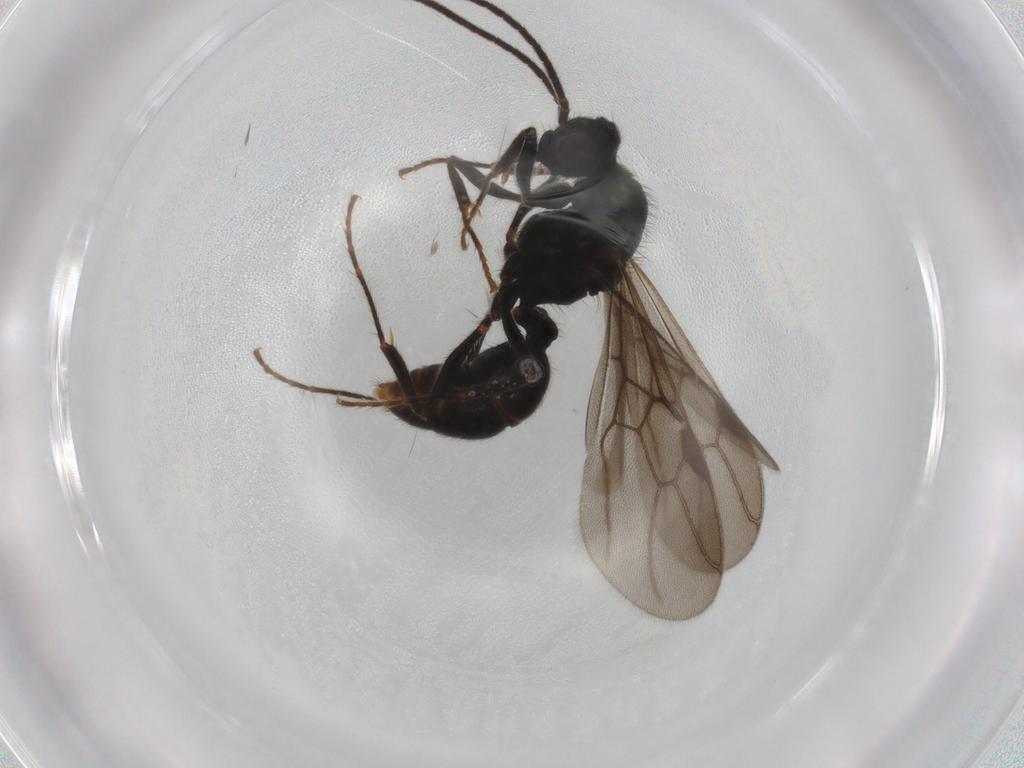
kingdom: Animalia
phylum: Arthropoda
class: Insecta
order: Hymenoptera
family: Formicidae
